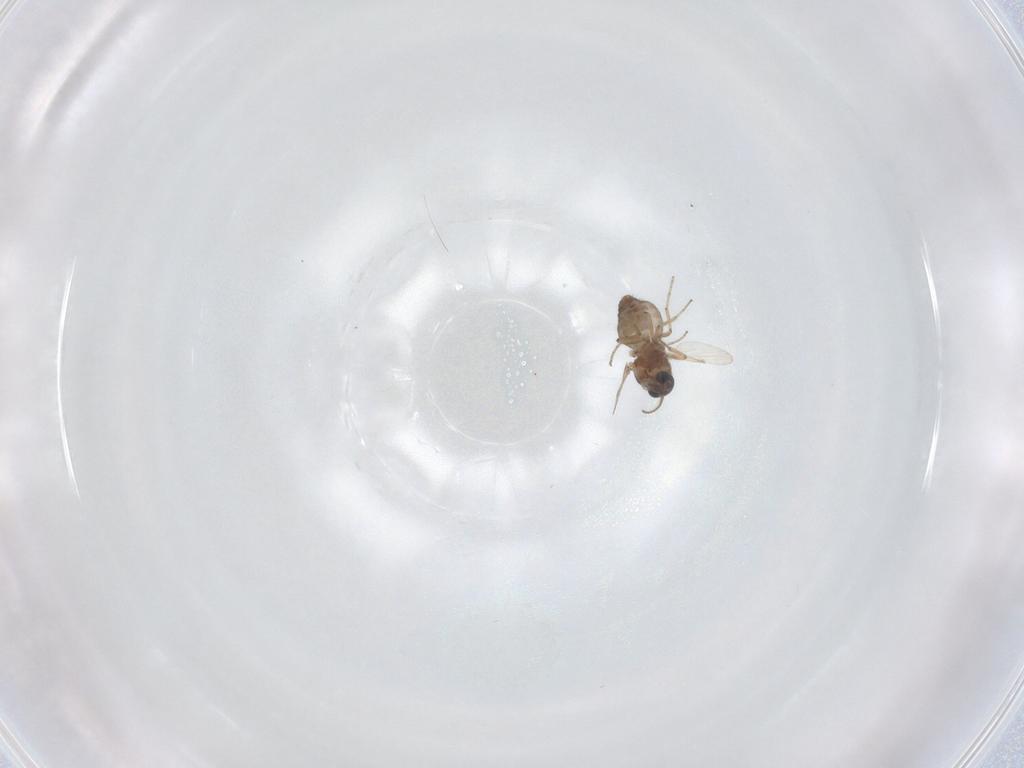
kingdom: Animalia
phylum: Arthropoda
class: Insecta
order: Diptera
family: Ceratopogonidae
